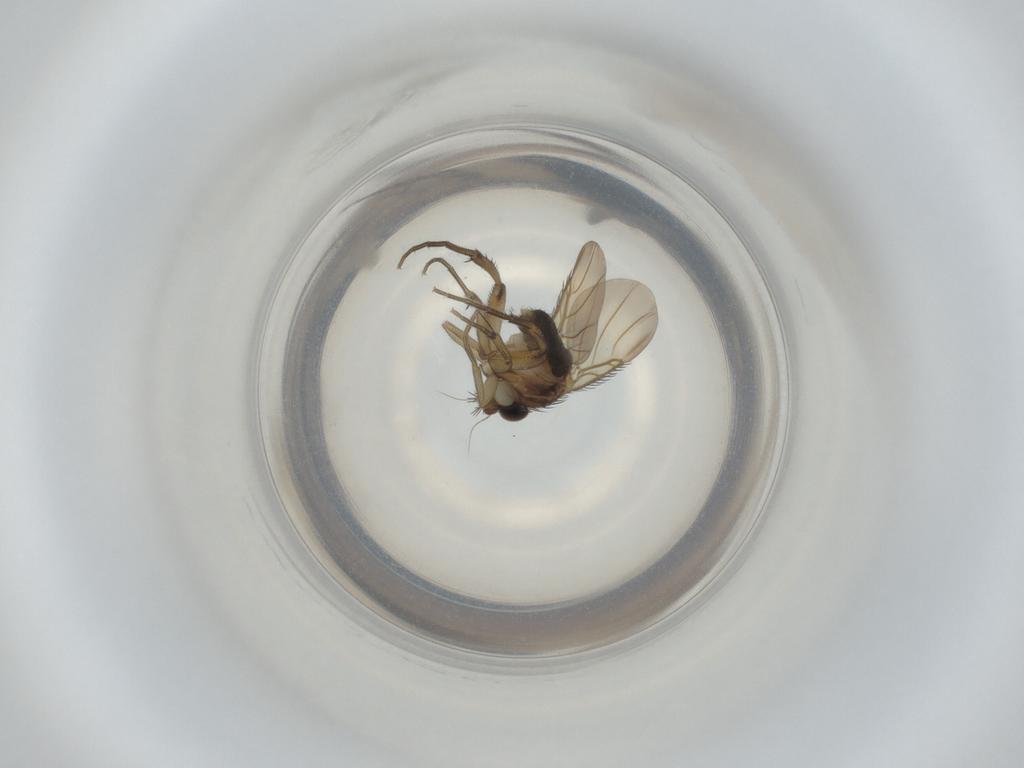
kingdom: Animalia
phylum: Arthropoda
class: Insecta
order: Diptera
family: Phoridae
